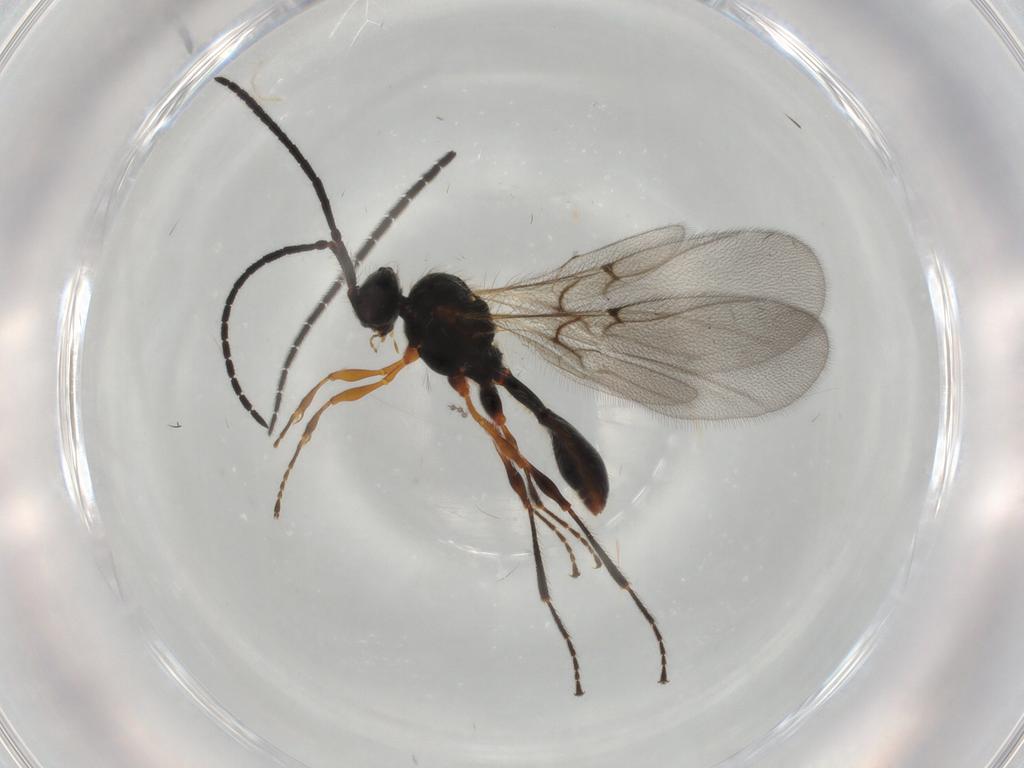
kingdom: Animalia
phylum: Arthropoda
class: Insecta
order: Hymenoptera
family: Diapriidae
